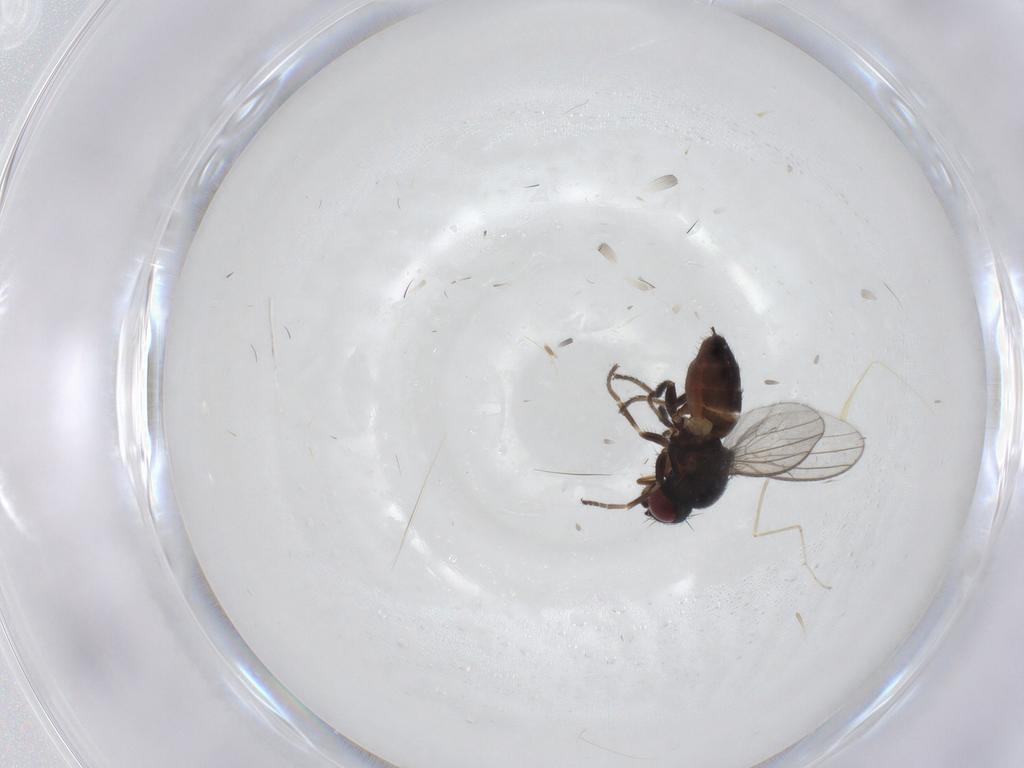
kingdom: Animalia
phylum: Arthropoda
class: Insecta
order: Diptera
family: Milichiidae
